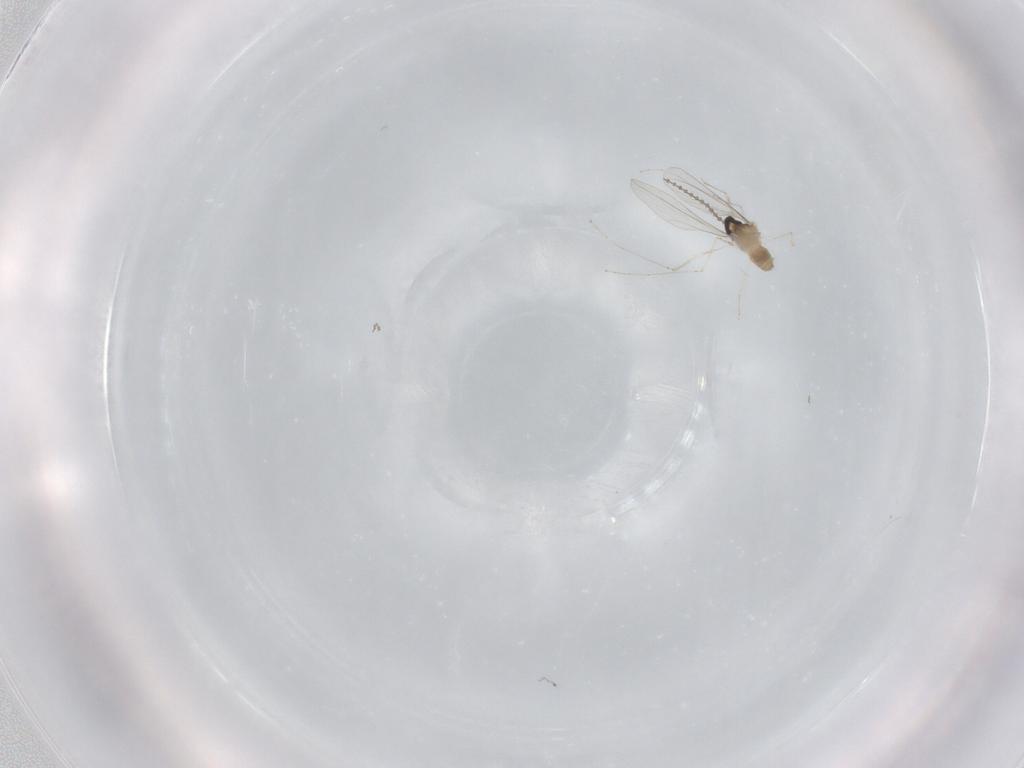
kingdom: Animalia
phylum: Arthropoda
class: Insecta
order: Diptera
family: Cecidomyiidae
